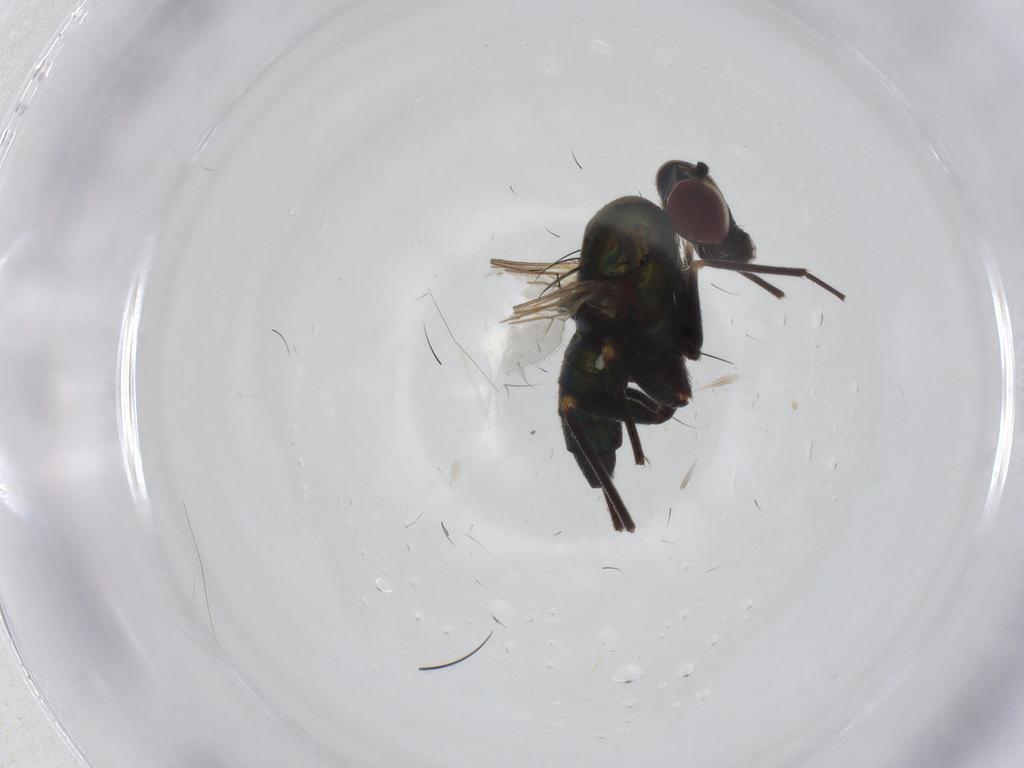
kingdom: Animalia
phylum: Arthropoda
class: Insecta
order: Diptera
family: Dolichopodidae
